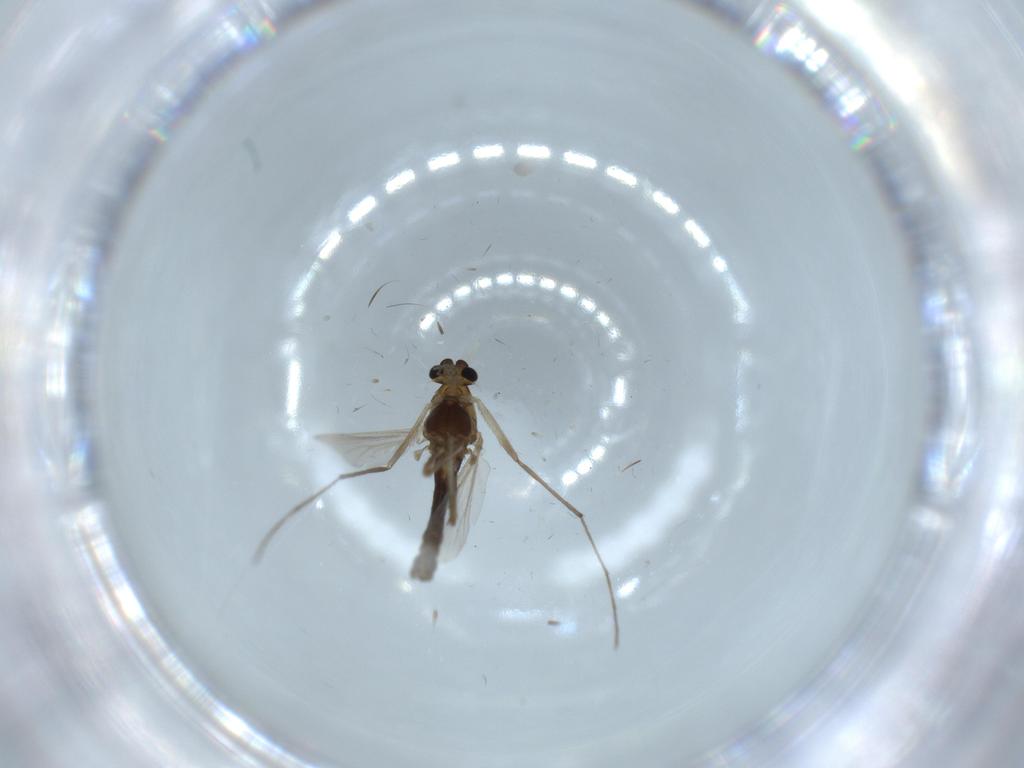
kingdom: Animalia
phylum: Arthropoda
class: Insecta
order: Diptera
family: Chironomidae
